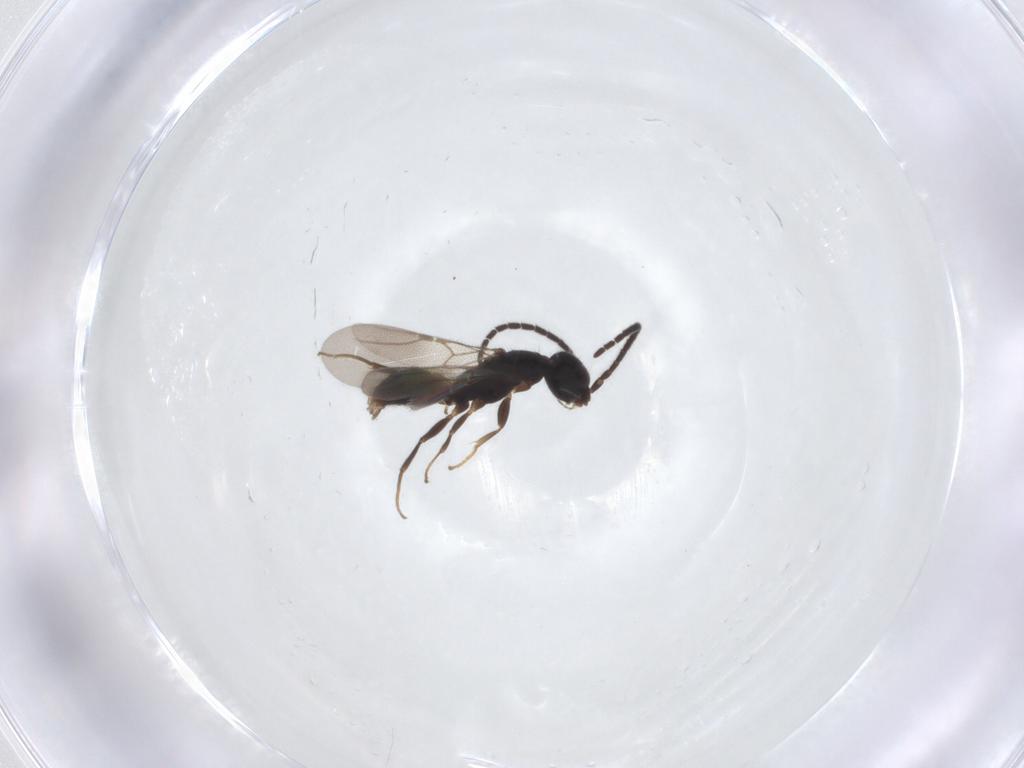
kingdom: Animalia
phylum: Arthropoda
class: Insecta
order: Hymenoptera
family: Bethylidae
